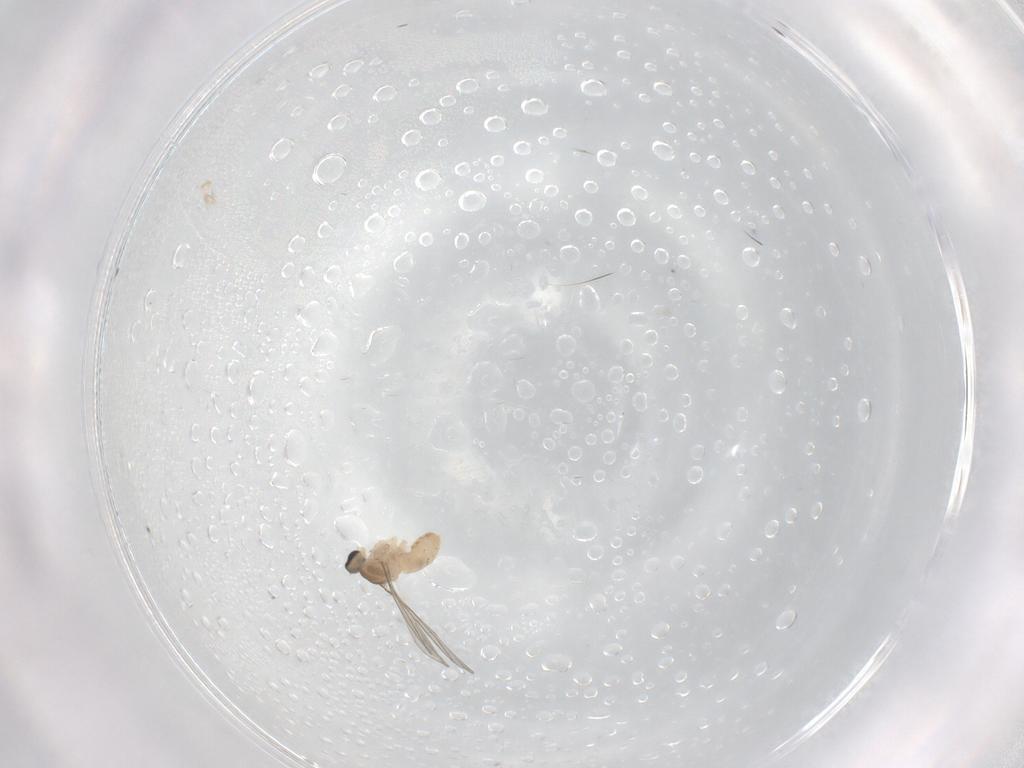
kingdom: Animalia
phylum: Arthropoda
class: Insecta
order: Diptera
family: Cecidomyiidae
